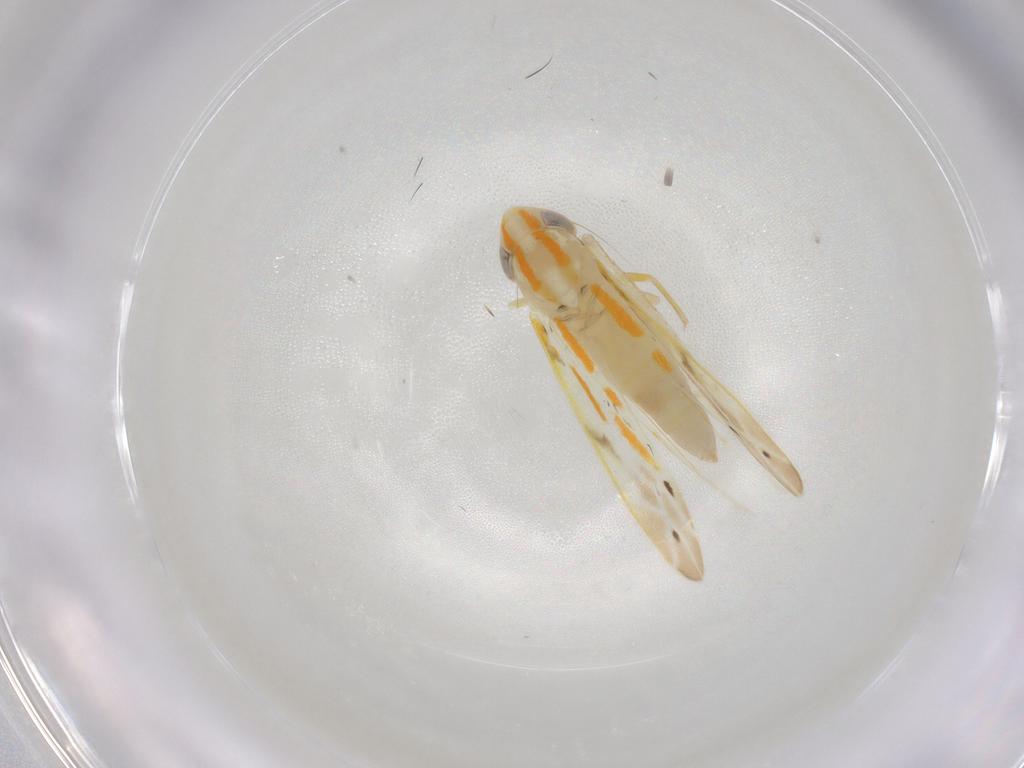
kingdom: Animalia
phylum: Arthropoda
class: Insecta
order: Hemiptera
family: Cicadellidae
